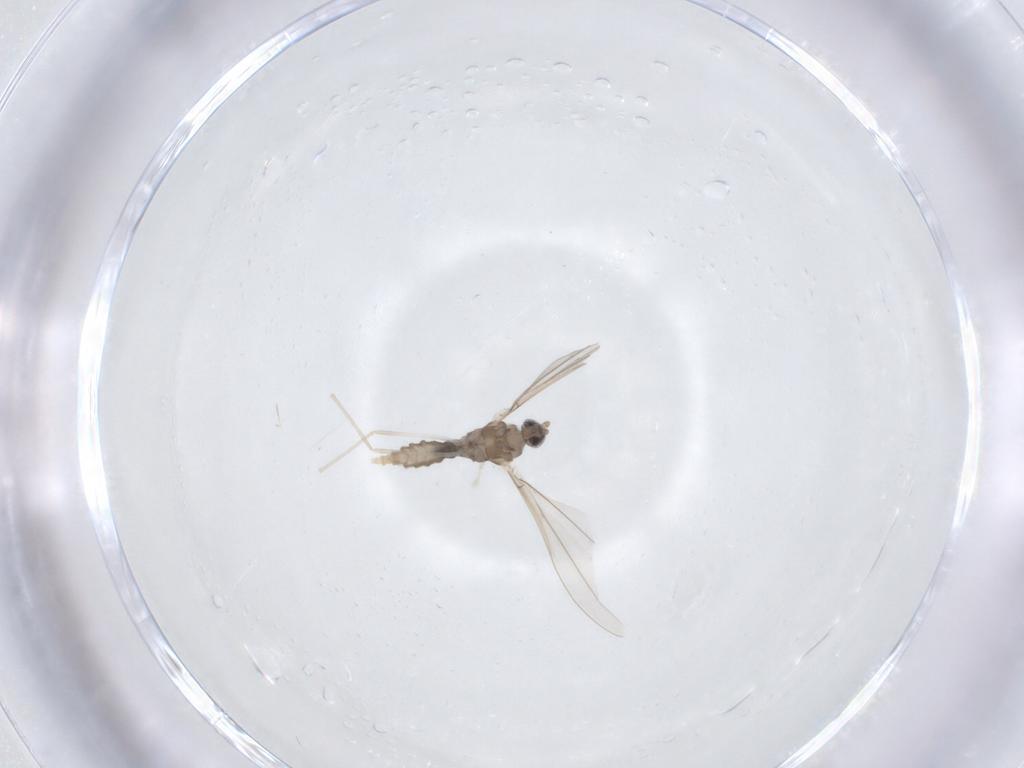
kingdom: Animalia
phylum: Arthropoda
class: Insecta
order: Diptera
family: Cecidomyiidae
